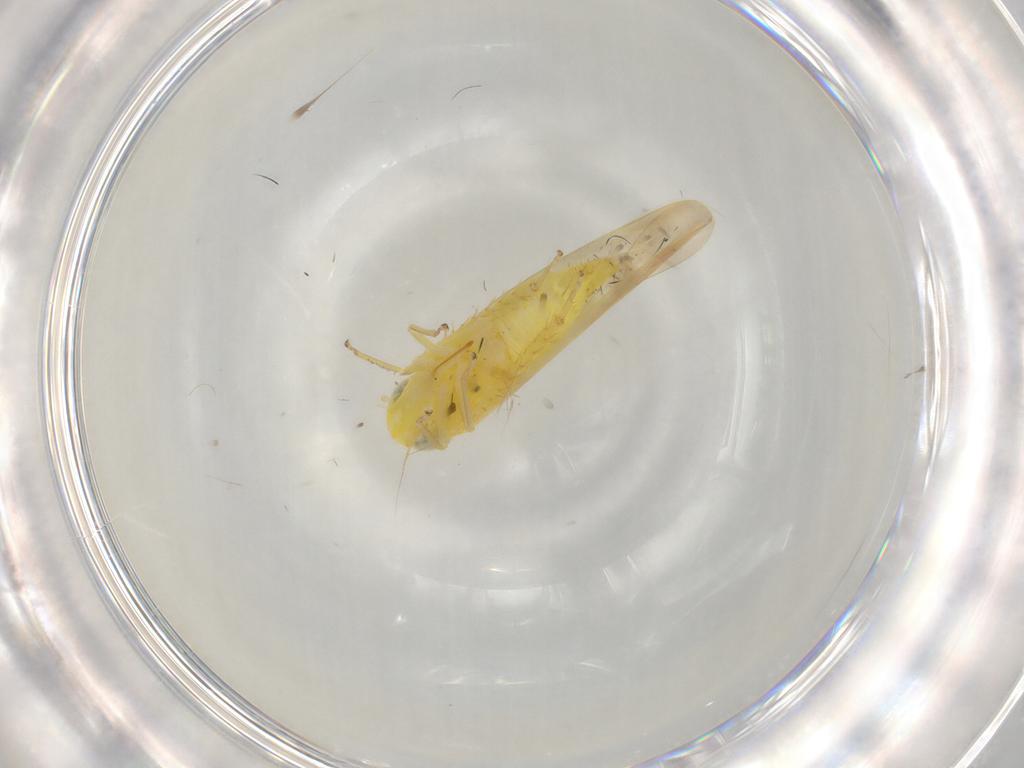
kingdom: Animalia
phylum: Arthropoda
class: Insecta
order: Hemiptera
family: Cicadellidae
